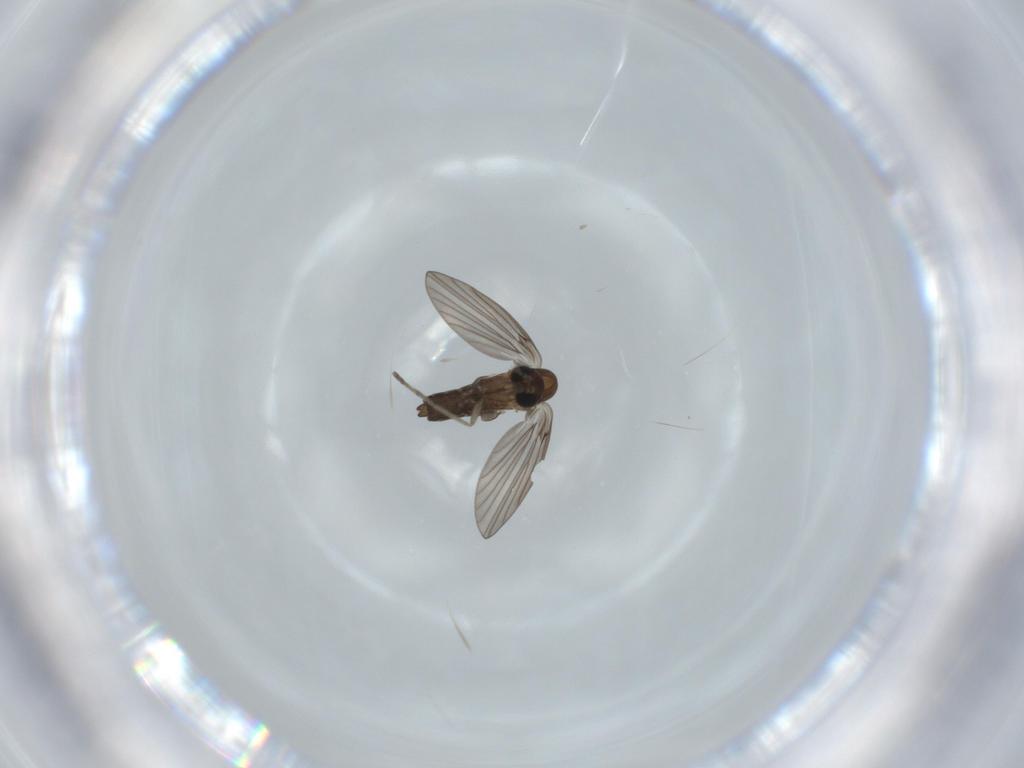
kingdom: Animalia
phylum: Arthropoda
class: Insecta
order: Diptera
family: Psychodidae
